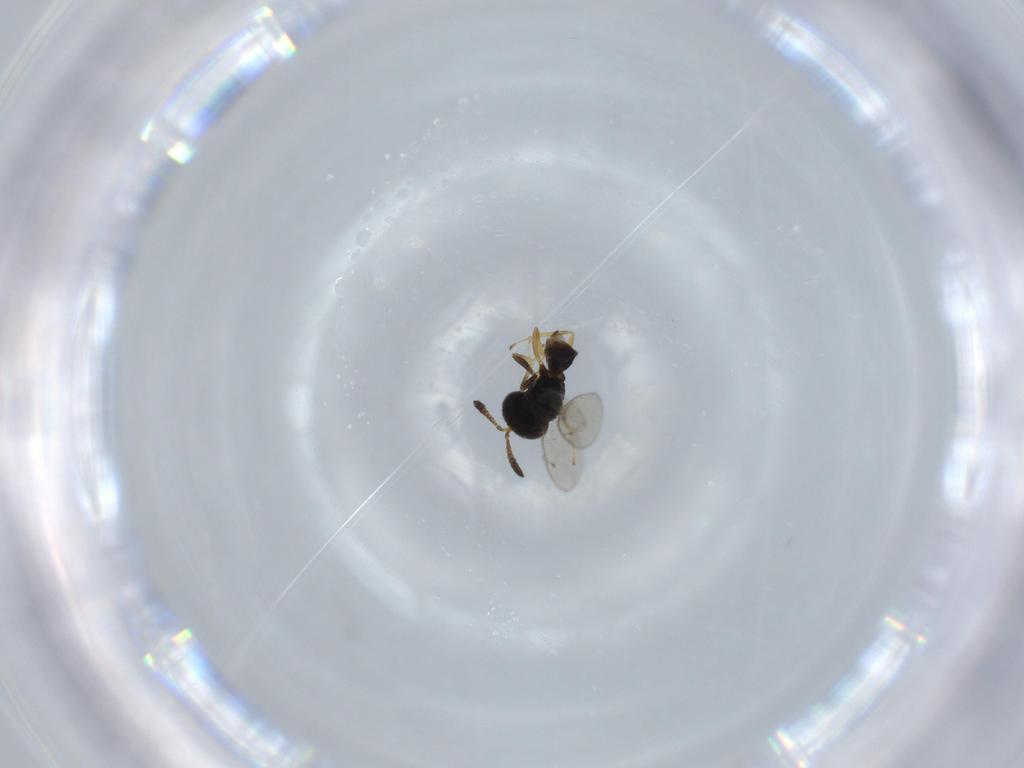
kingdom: Animalia
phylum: Arthropoda
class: Insecta
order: Hymenoptera
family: Pteromalidae
